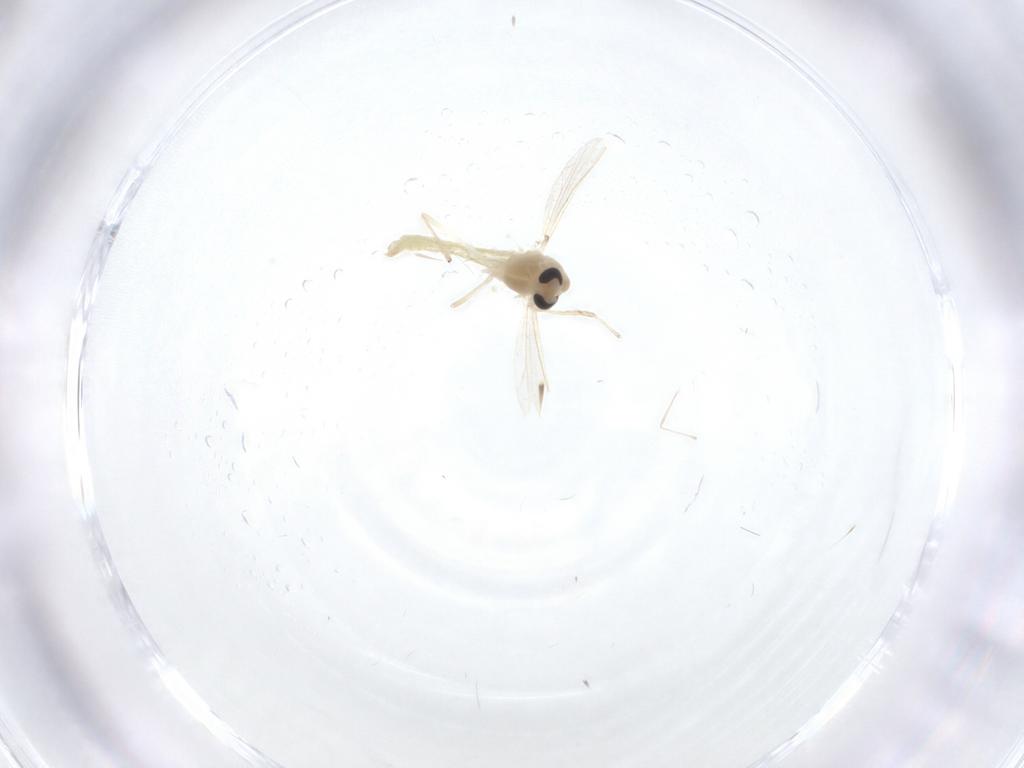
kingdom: Animalia
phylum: Arthropoda
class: Insecta
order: Diptera
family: Chironomidae
